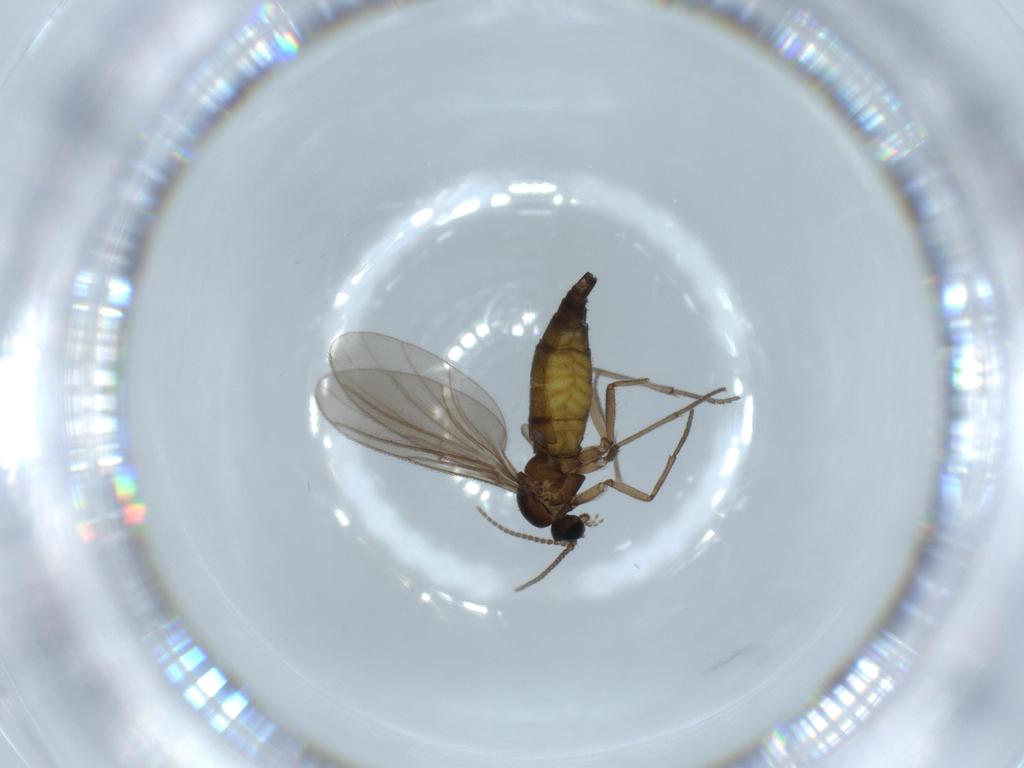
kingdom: Animalia
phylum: Arthropoda
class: Insecta
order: Diptera
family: Sciaridae
